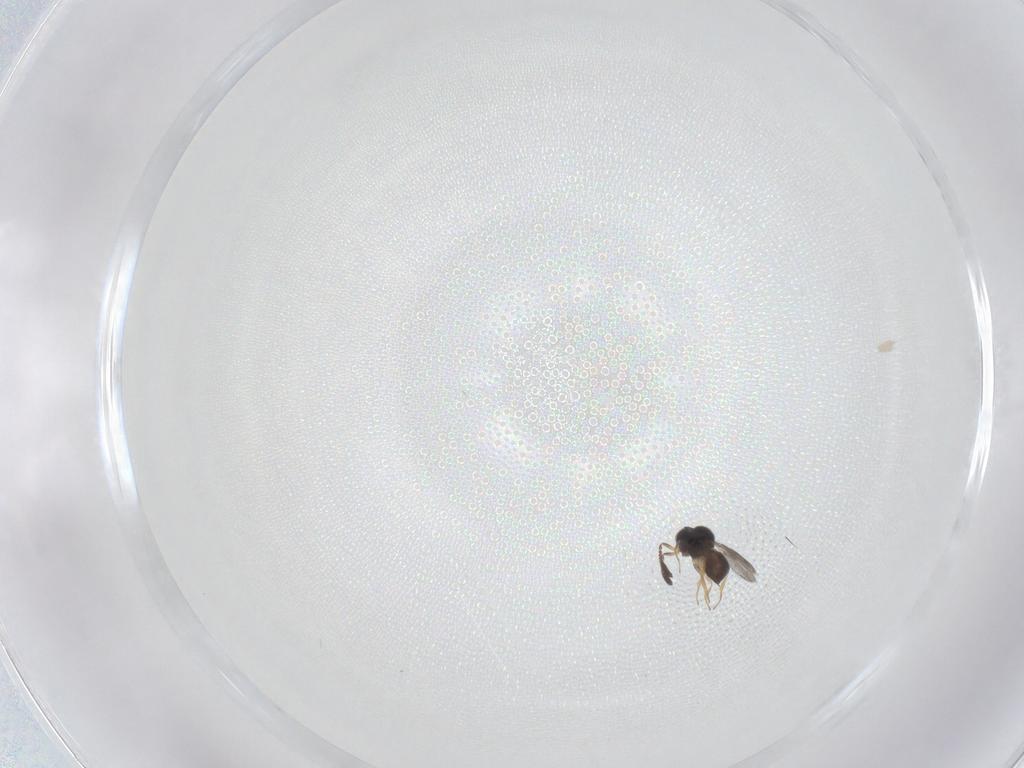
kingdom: Animalia
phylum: Arthropoda
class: Insecta
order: Hymenoptera
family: Scelionidae
